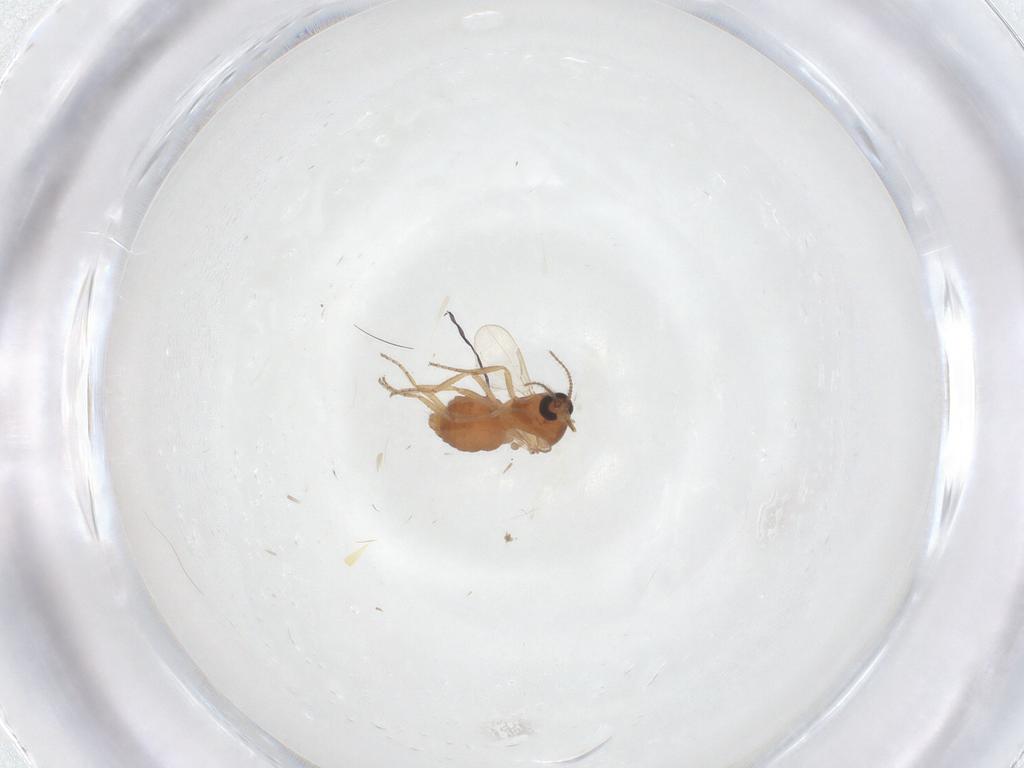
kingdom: Animalia
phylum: Arthropoda
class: Insecta
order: Diptera
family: Ceratopogonidae
